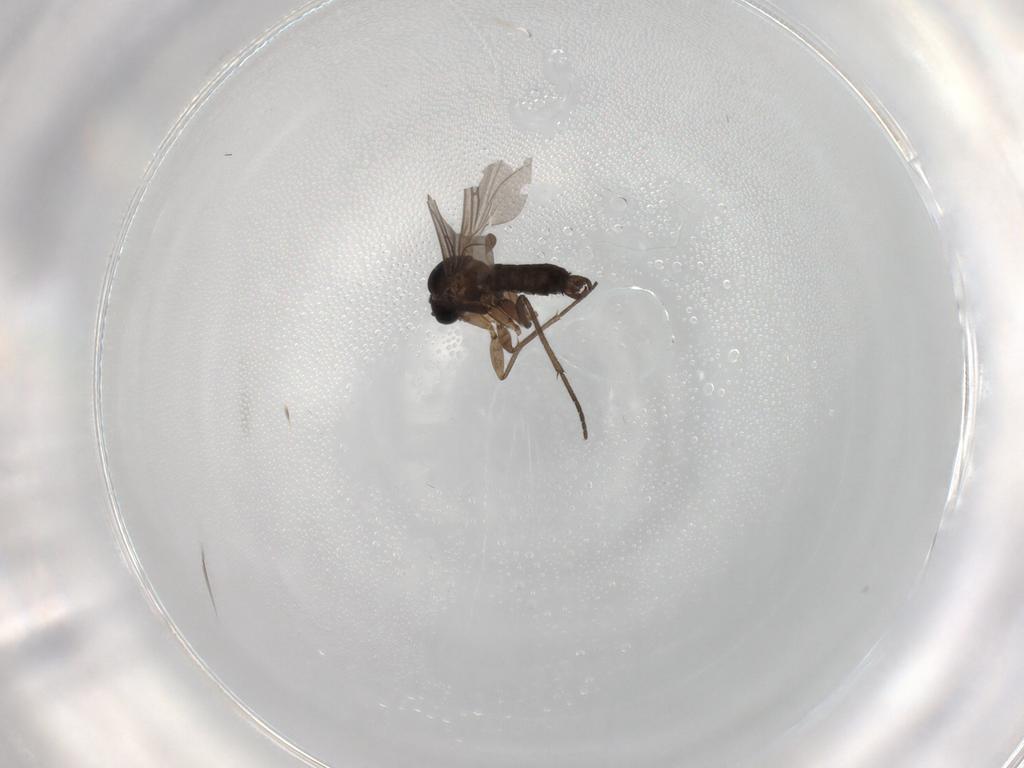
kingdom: Animalia
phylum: Arthropoda
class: Insecta
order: Diptera
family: Sciaridae
